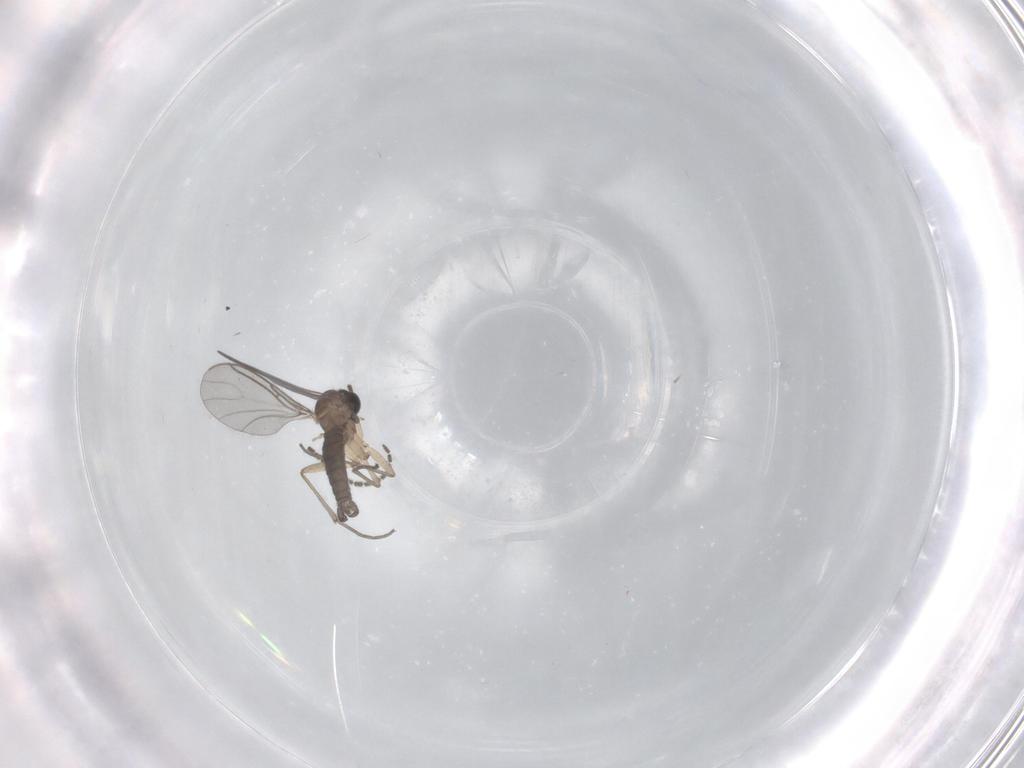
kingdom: Animalia
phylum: Arthropoda
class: Insecta
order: Diptera
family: Sciaridae
